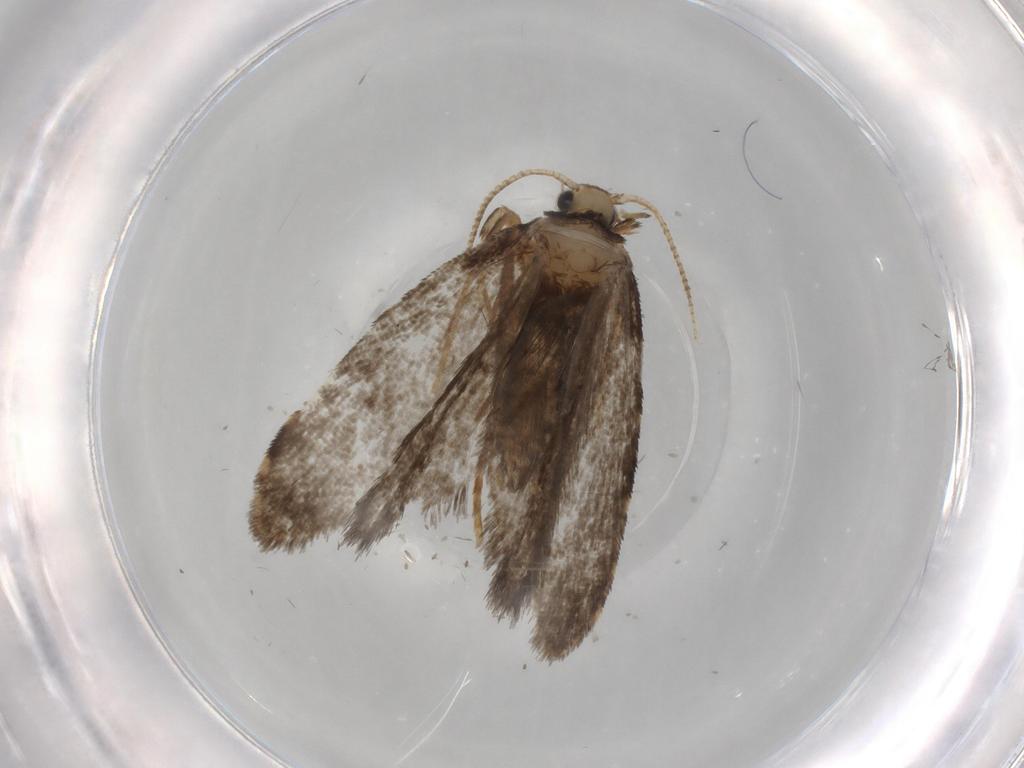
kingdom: Animalia
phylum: Arthropoda
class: Insecta
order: Lepidoptera
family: Psychidae
